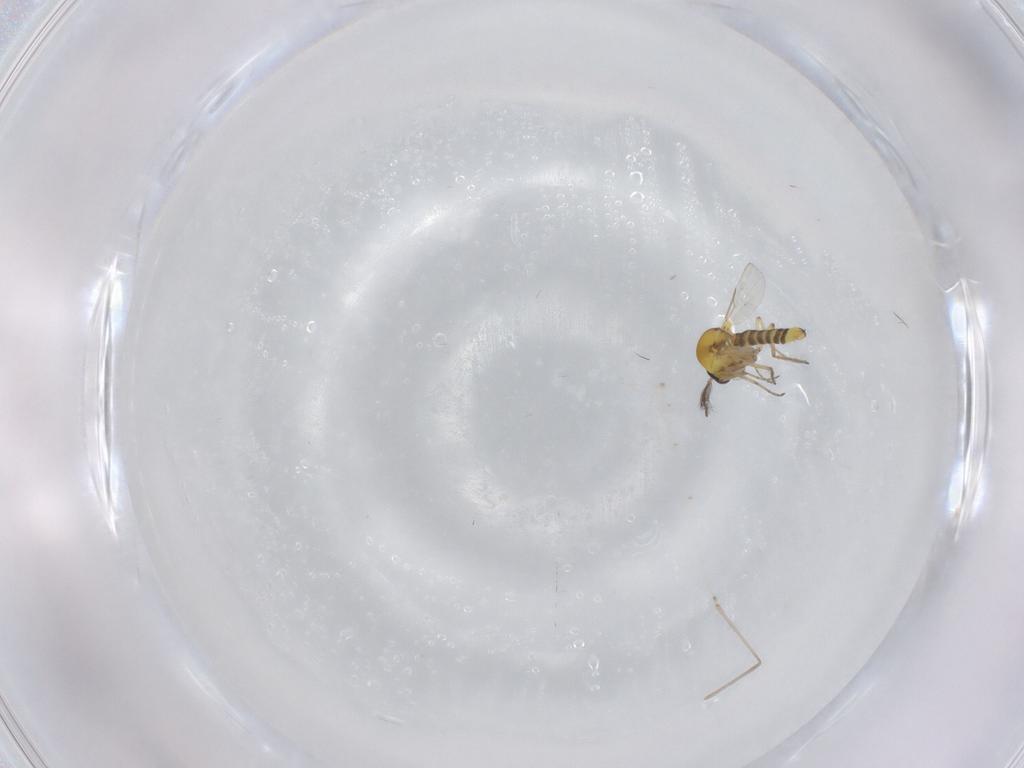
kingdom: Animalia
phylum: Arthropoda
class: Insecta
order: Diptera
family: Cecidomyiidae
